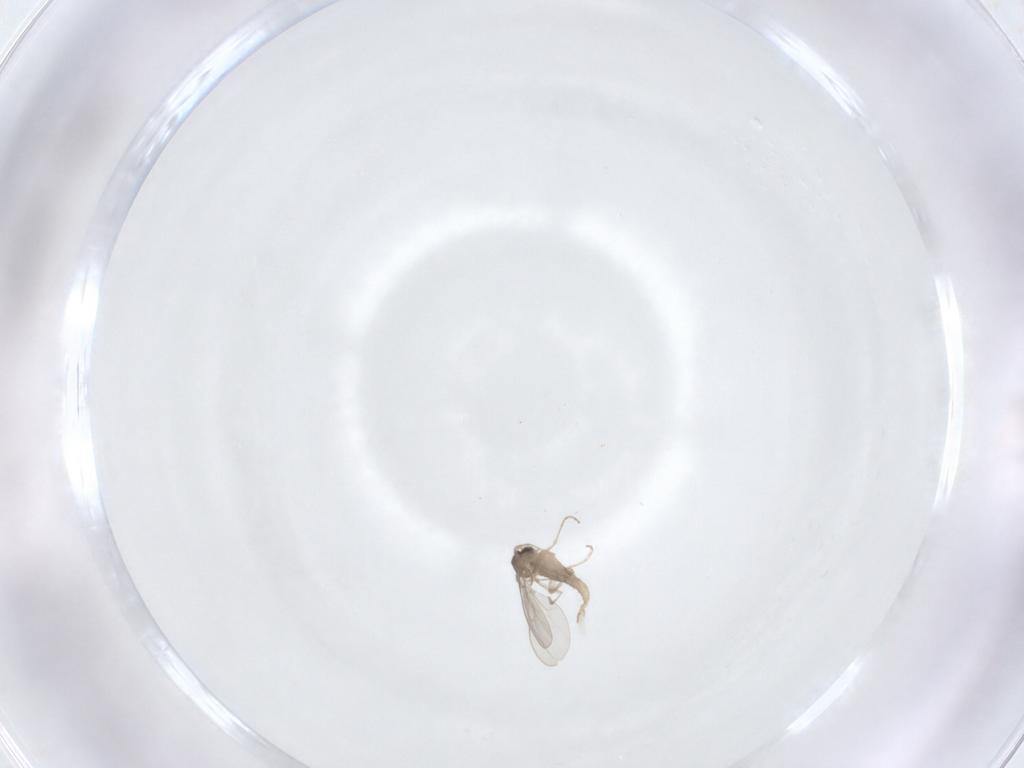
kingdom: Animalia
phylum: Arthropoda
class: Insecta
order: Diptera
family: Cecidomyiidae
